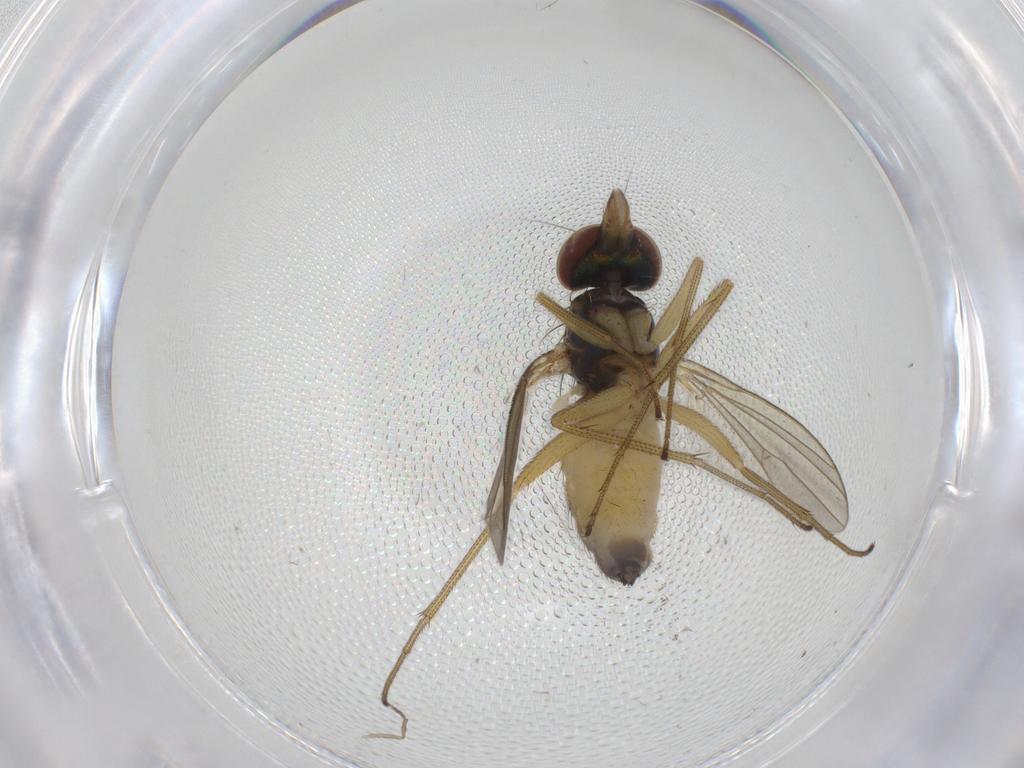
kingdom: Animalia
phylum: Arthropoda
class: Insecta
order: Diptera
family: Dolichopodidae
